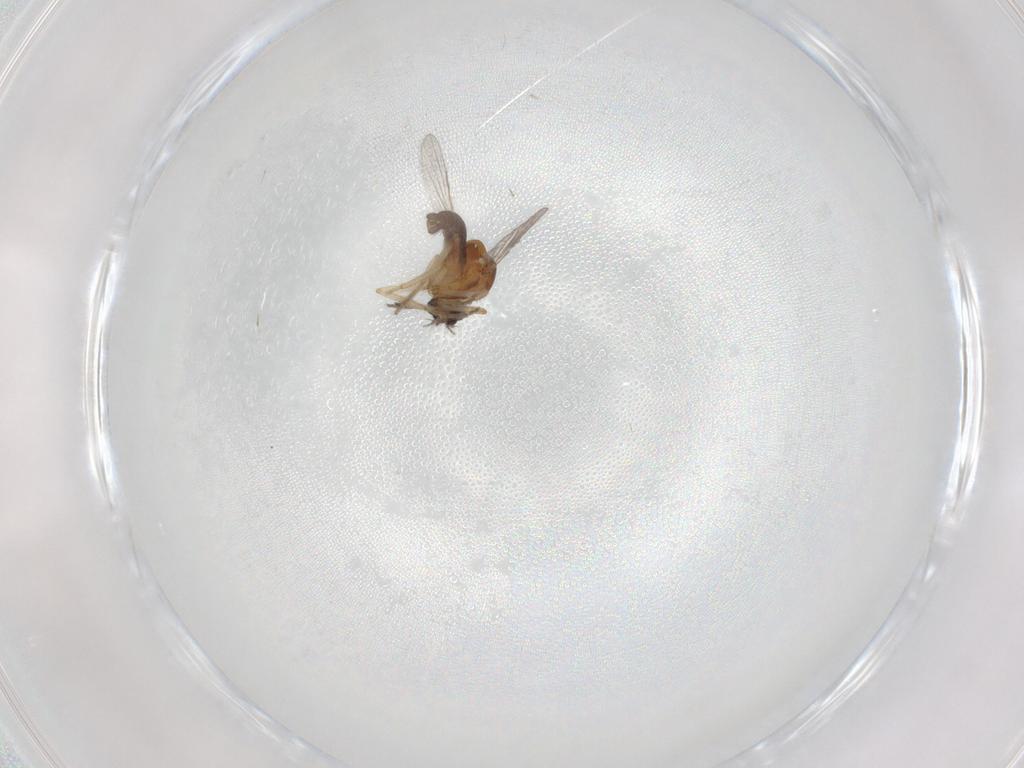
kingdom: Animalia
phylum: Arthropoda
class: Insecta
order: Diptera
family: Ceratopogonidae
